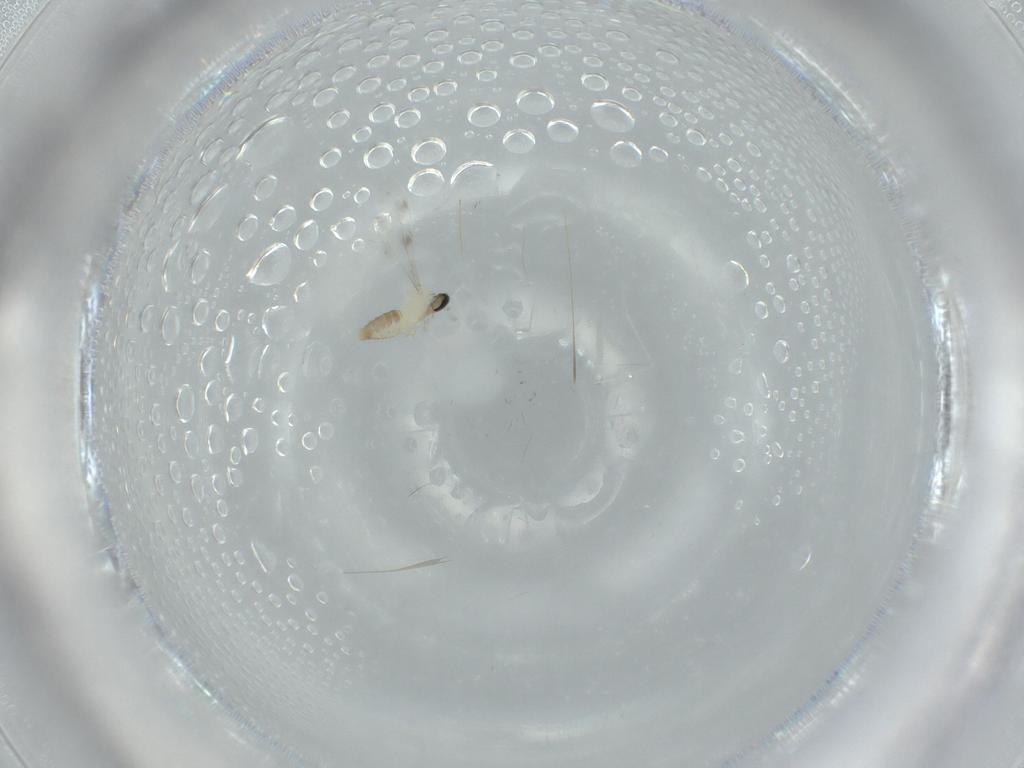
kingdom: Animalia
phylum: Arthropoda
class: Insecta
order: Diptera
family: Cecidomyiidae
